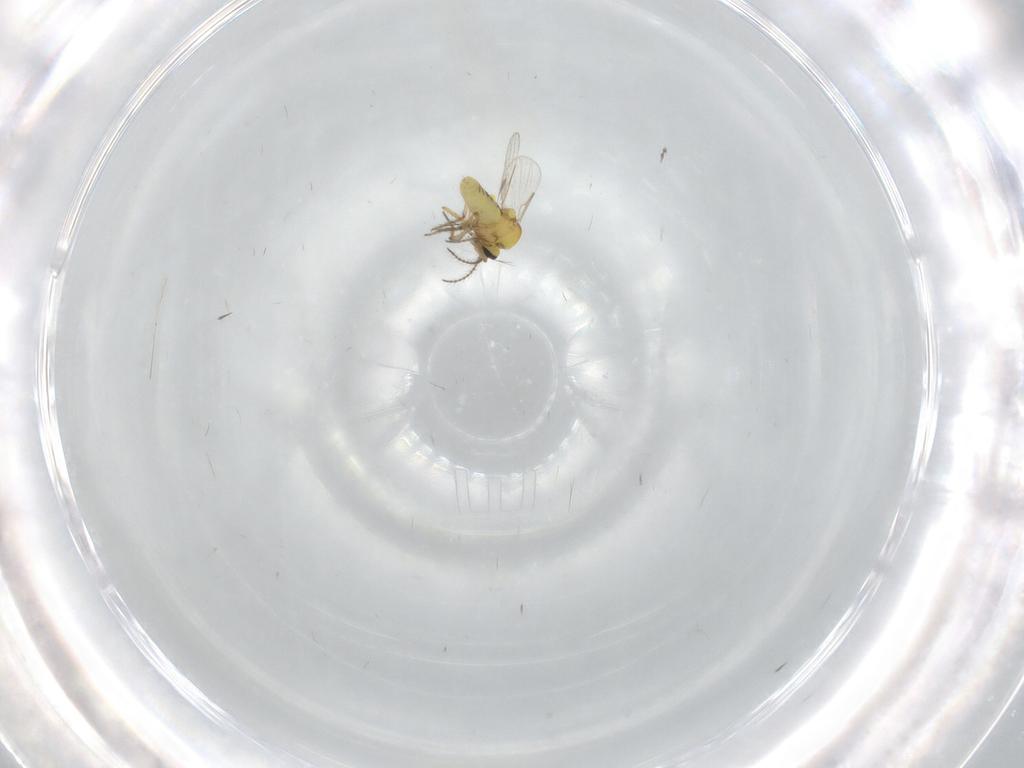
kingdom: Animalia
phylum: Arthropoda
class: Insecta
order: Diptera
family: Ceratopogonidae
